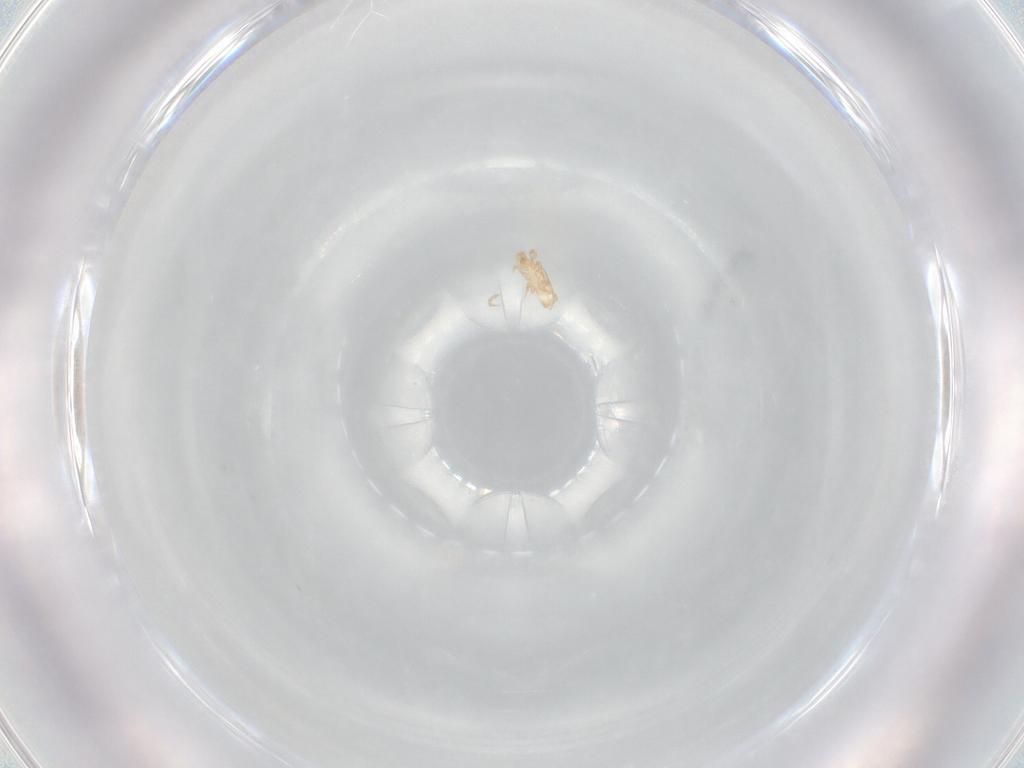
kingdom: Animalia
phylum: Arthropoda
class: Arachnida
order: Mesostigmata
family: Ascidae
